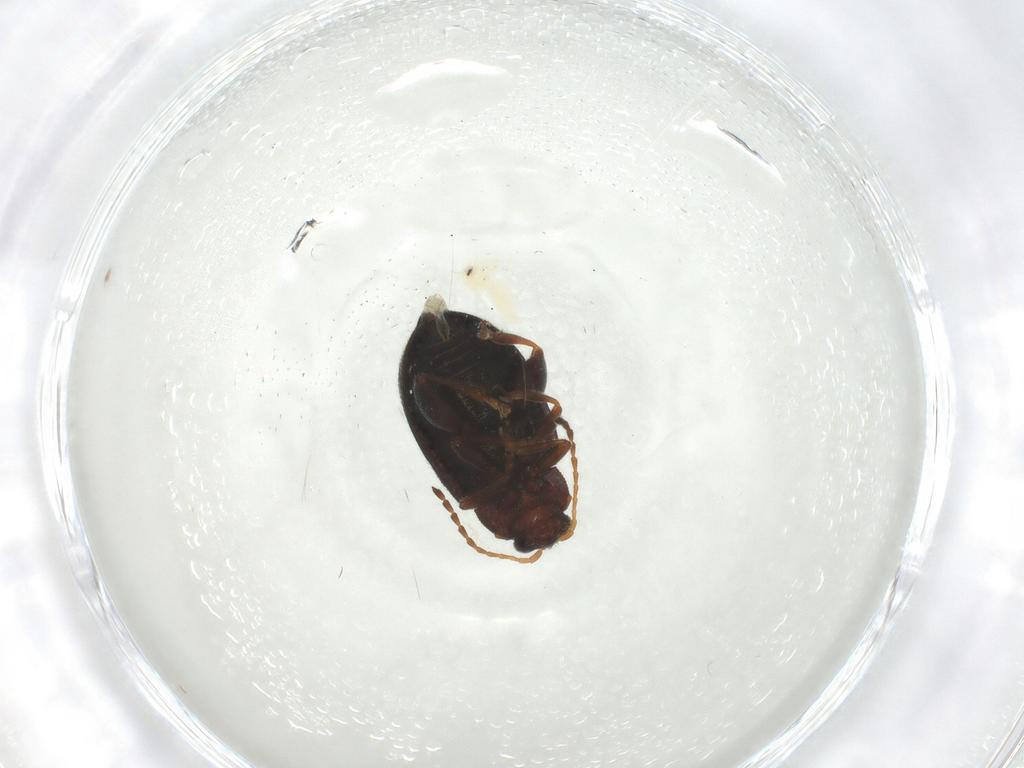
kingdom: Animalia
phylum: Arthropoda
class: Insecta
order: Coleoptera
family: Chrysomelidae
